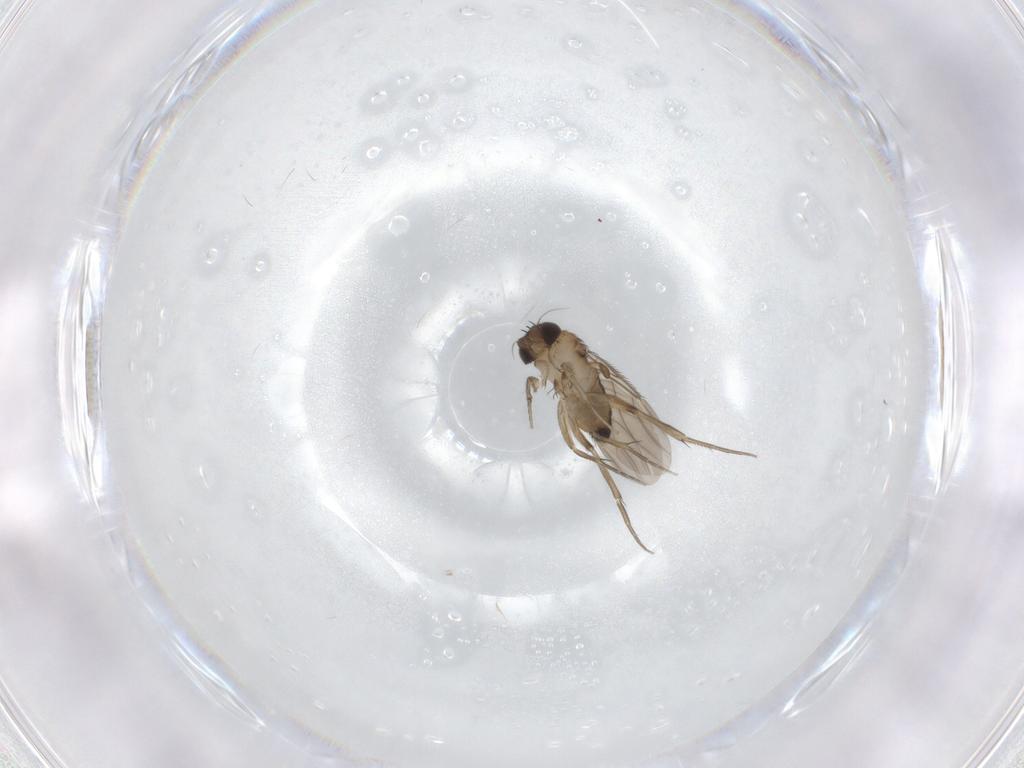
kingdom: Animalia
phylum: Arthropoda
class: Insecta
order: Diptera
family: Phoridae
